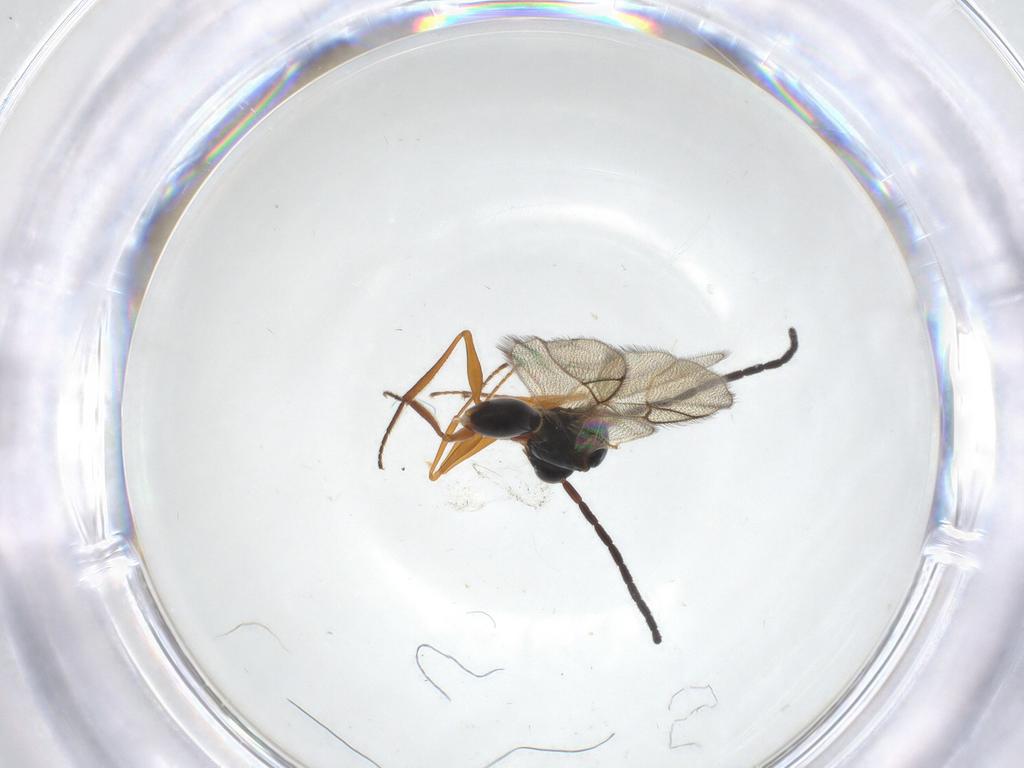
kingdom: Animalia
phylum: Arthropoda
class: Insecta
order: Hymenoptera
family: Figitidae
